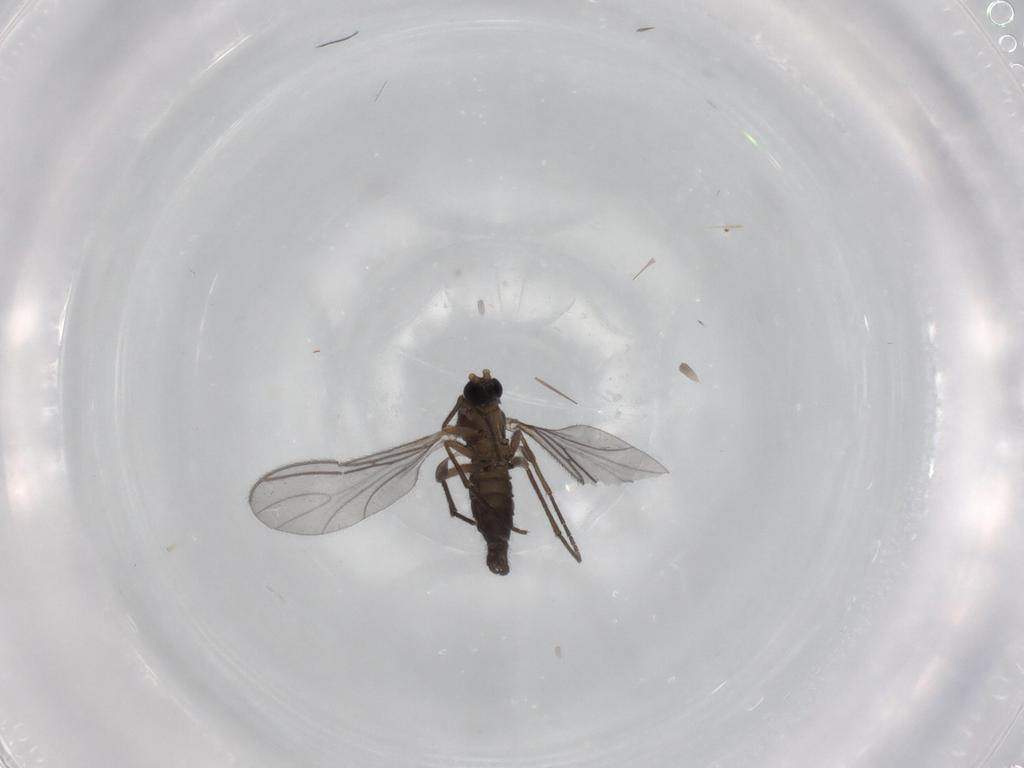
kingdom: Animalia
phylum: Arthropoda
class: Insecta
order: Diptera
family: Sciaridae
